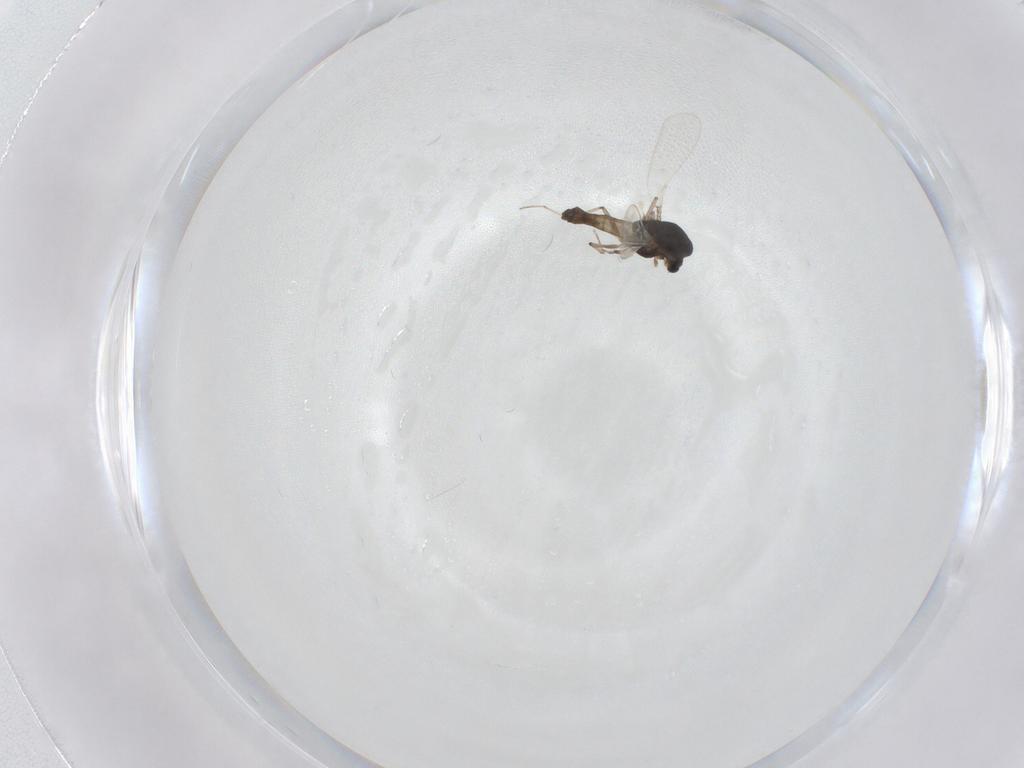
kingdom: Animalia
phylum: Arthropoda
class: Insecta
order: Diptera
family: Chironomidae
